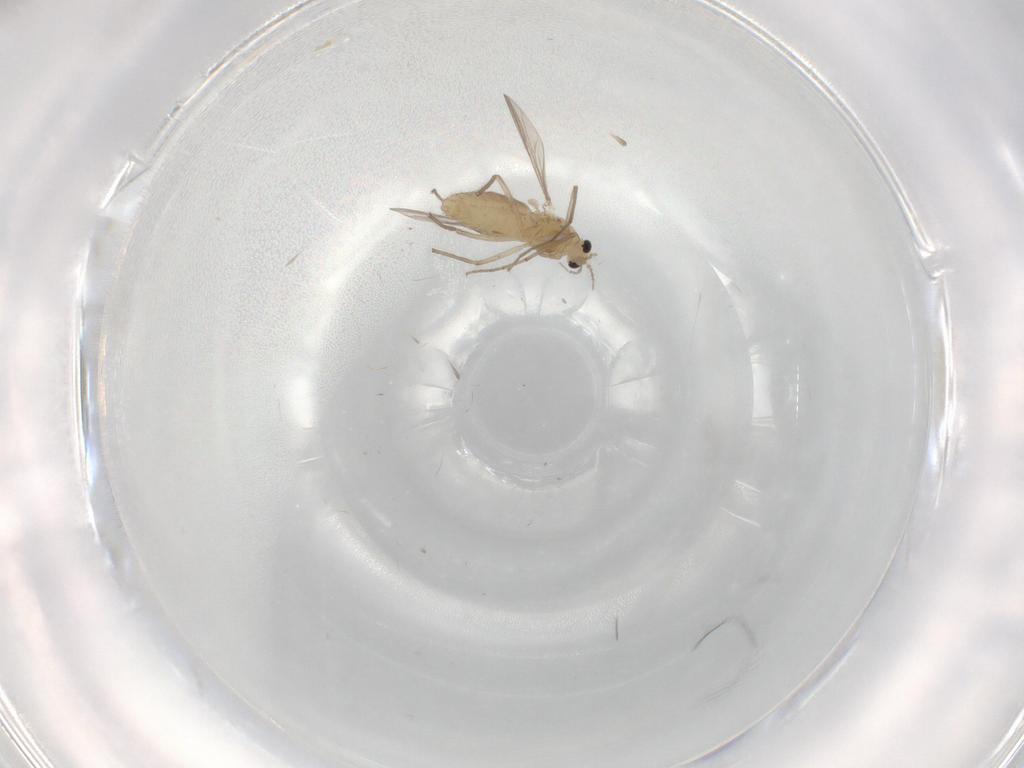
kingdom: Animalia
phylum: Arthropoda
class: Insecta
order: Diptera
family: Chironomidae
